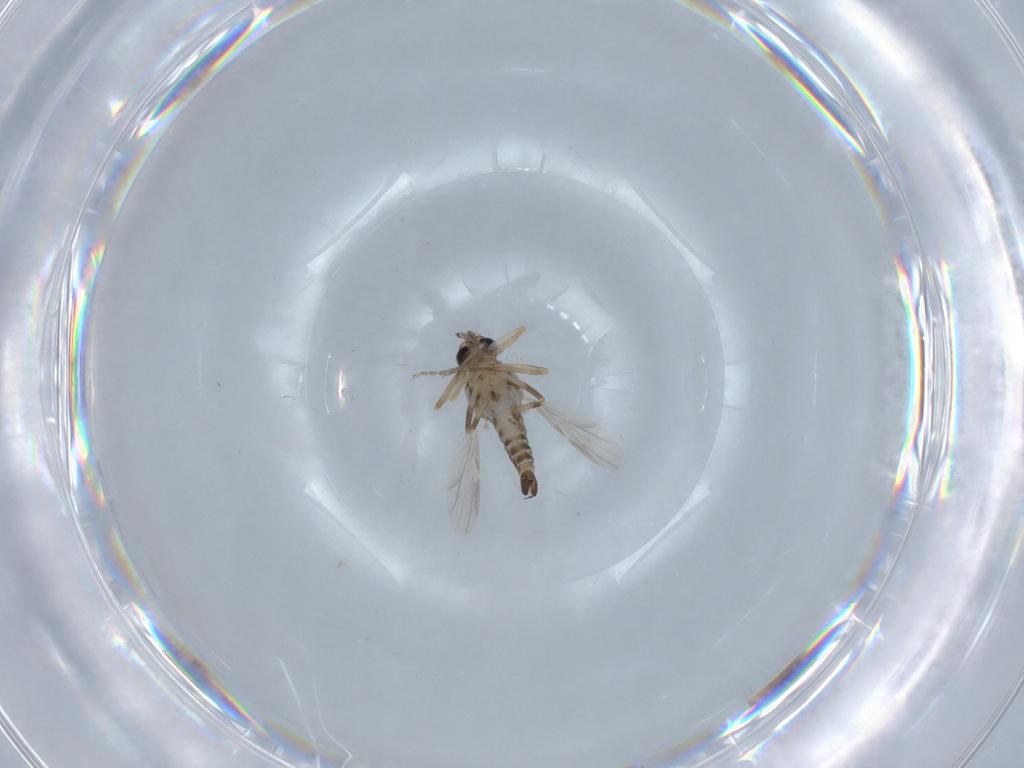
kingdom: Animalia
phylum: Arthropoda
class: Insecta
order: Diptera
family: Ceratopogonidae
